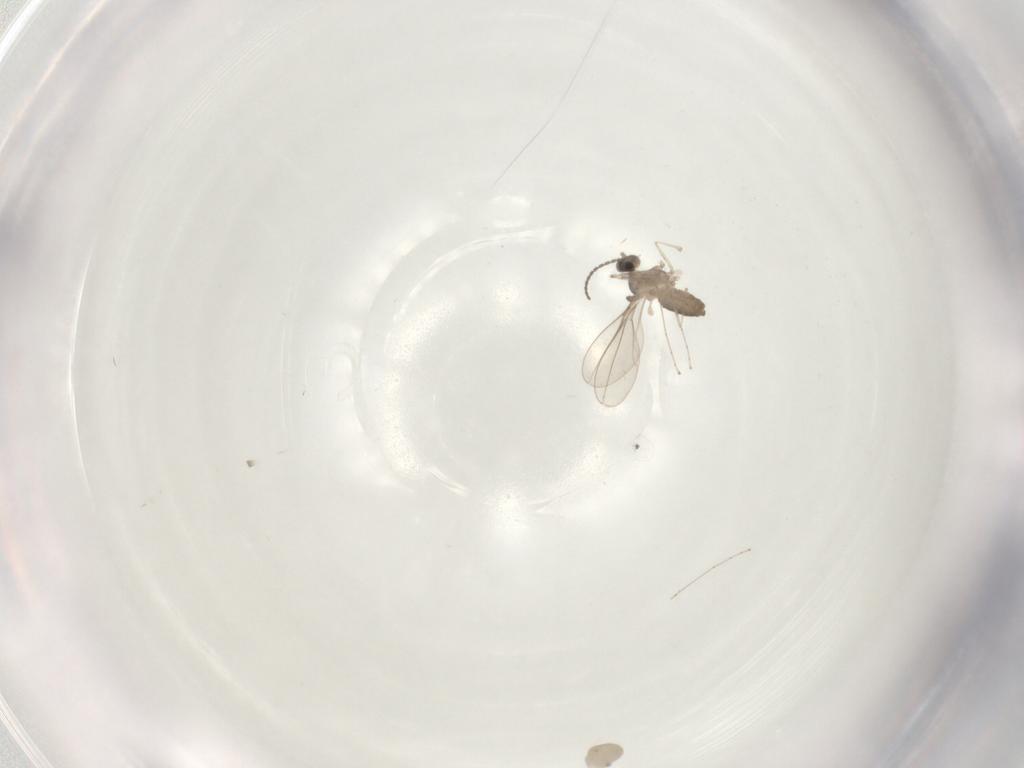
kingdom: Animalia
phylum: Arthropoda
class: Insecta
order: Diptera
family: Cecidomyiidae
